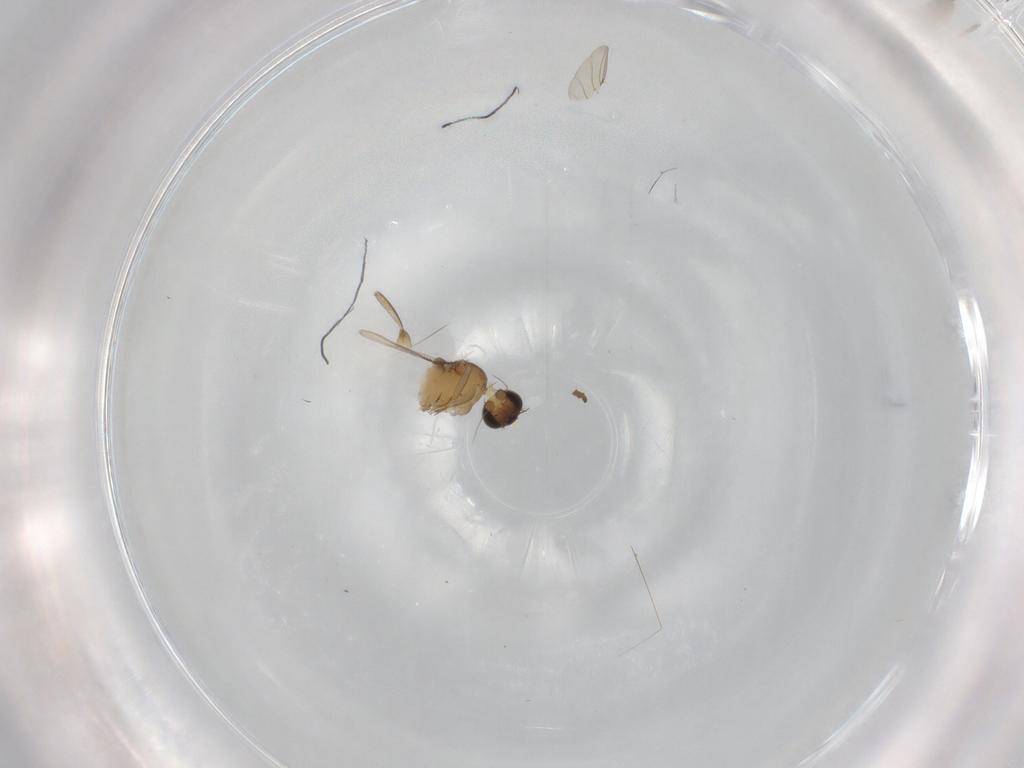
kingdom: Animalia
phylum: Arthropoda
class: Insecta
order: Diptera
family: Phoridae
